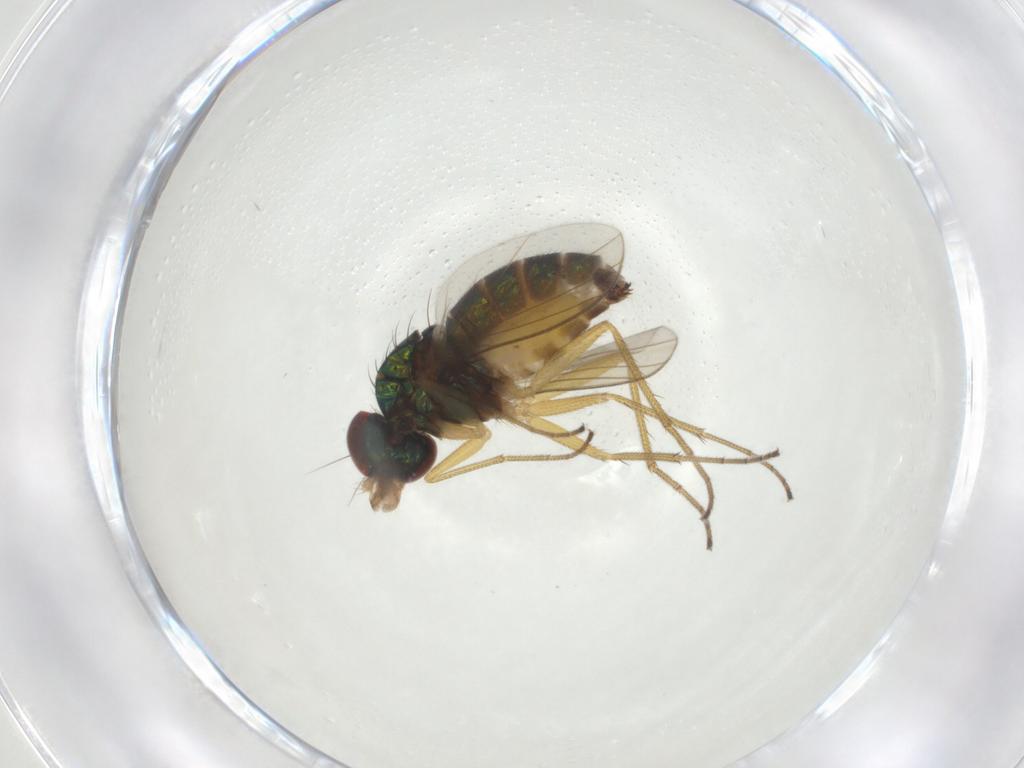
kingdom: Animalia
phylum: Arthropoda
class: Insecta
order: Diptera
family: Dolichopodidae
